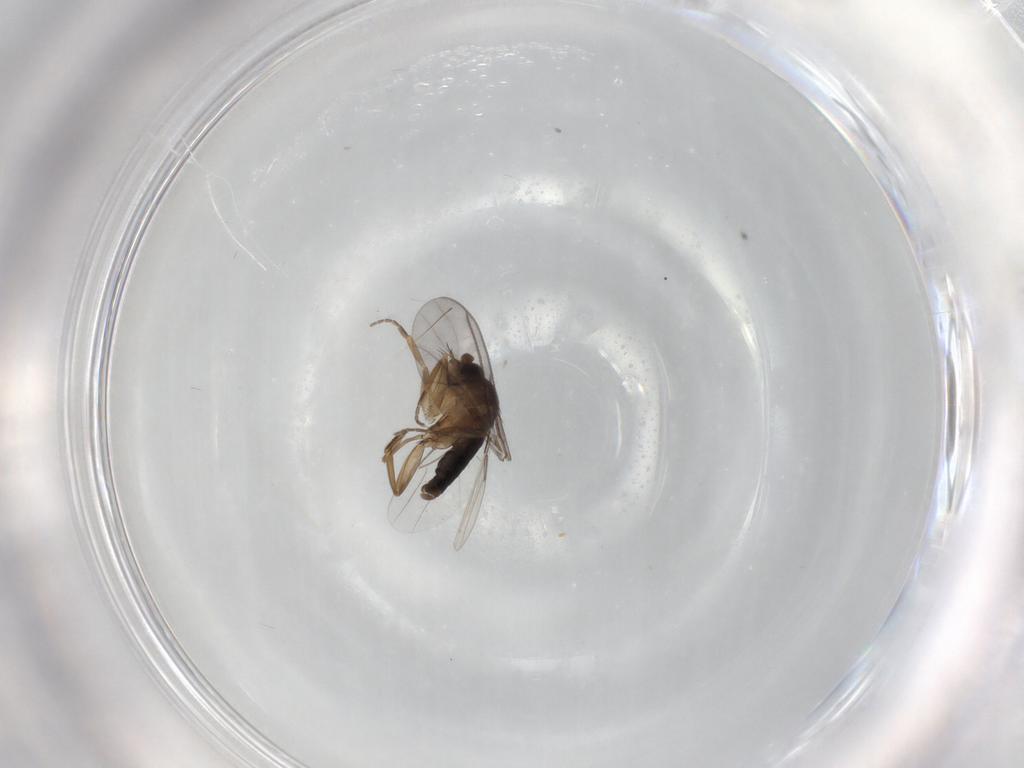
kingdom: Animalia
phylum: Arthropoda
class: Insecta
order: Diptera
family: Phoridae
